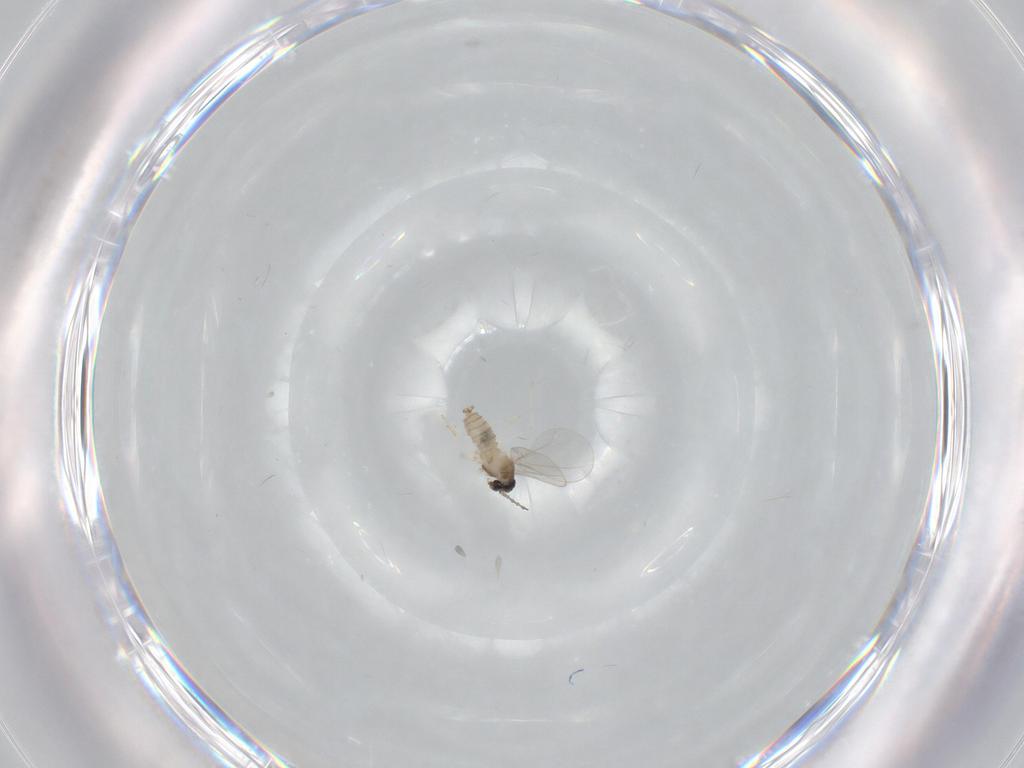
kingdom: Animalia
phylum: Arthropoda
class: Insecta
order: Diptera
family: Cecidomyiidae
